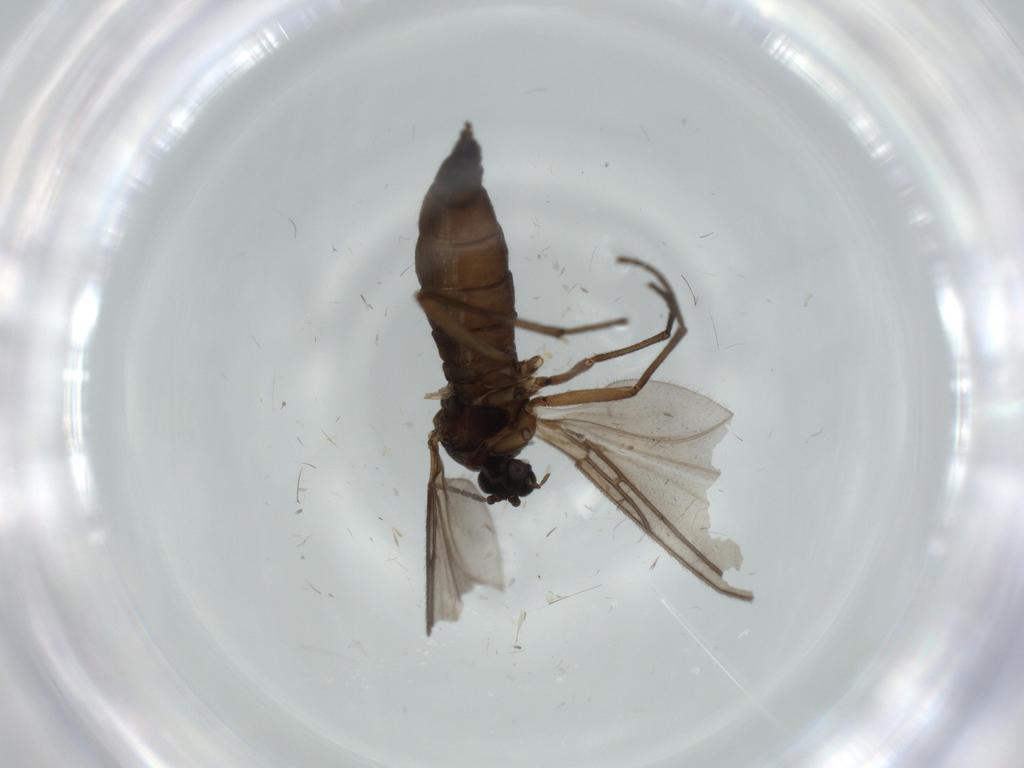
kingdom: Animalia
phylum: Arthropoda
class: Insecta
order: Diptera
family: Sciaridae
